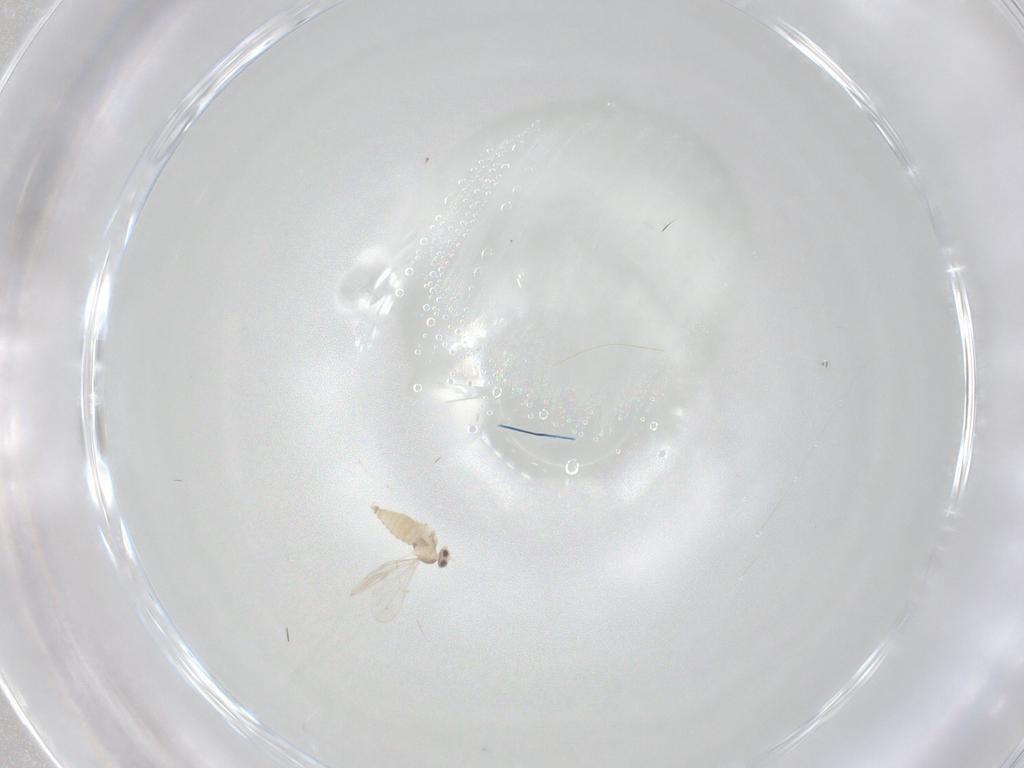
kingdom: Animalia
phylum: Arthropoda
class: Insecta
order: Diptera
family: Cecidomyiidae
